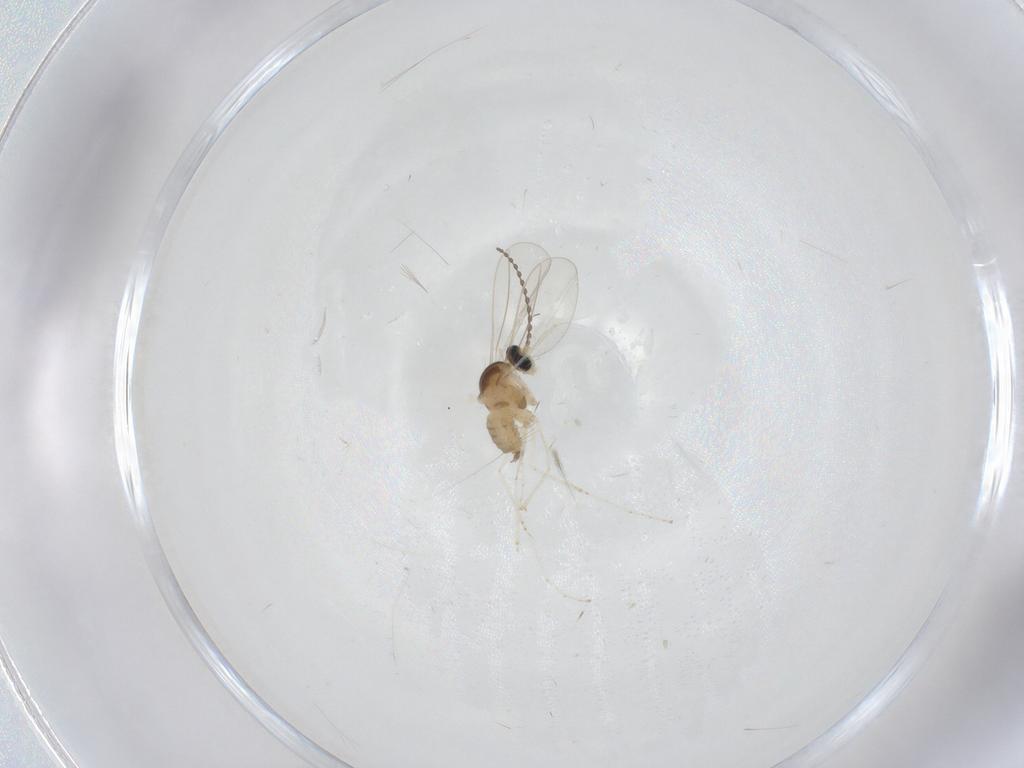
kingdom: Animalia
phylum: Arthropoda
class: Insecta
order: Diptera
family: Cecidomyiidae
